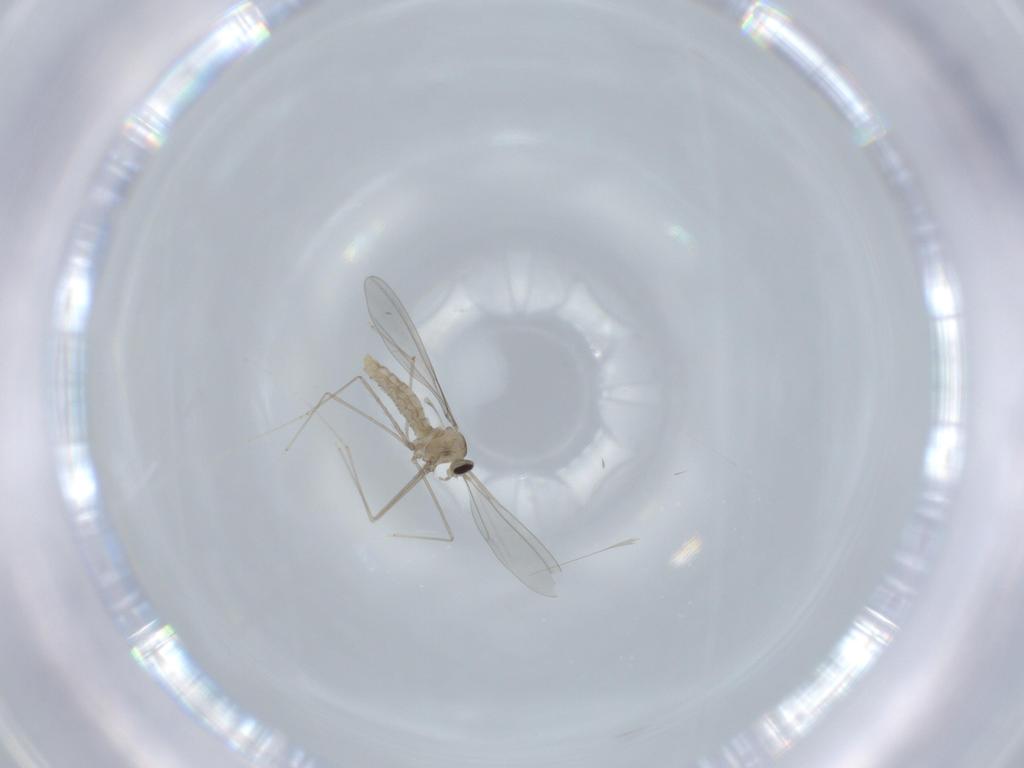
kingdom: Animalia
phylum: Arthropoda
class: Insecta
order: Diptera
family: Cecidomyiidae
